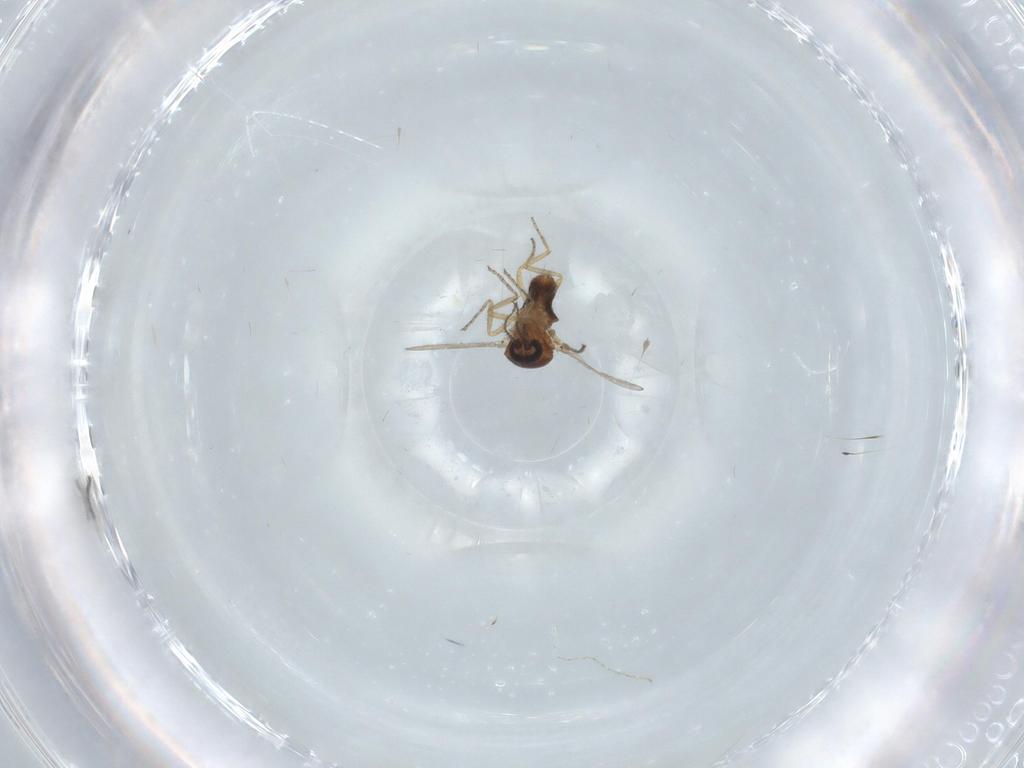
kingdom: Animalia
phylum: Arthropoda
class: Insecta
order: Diptera
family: Ceratopogonidae
